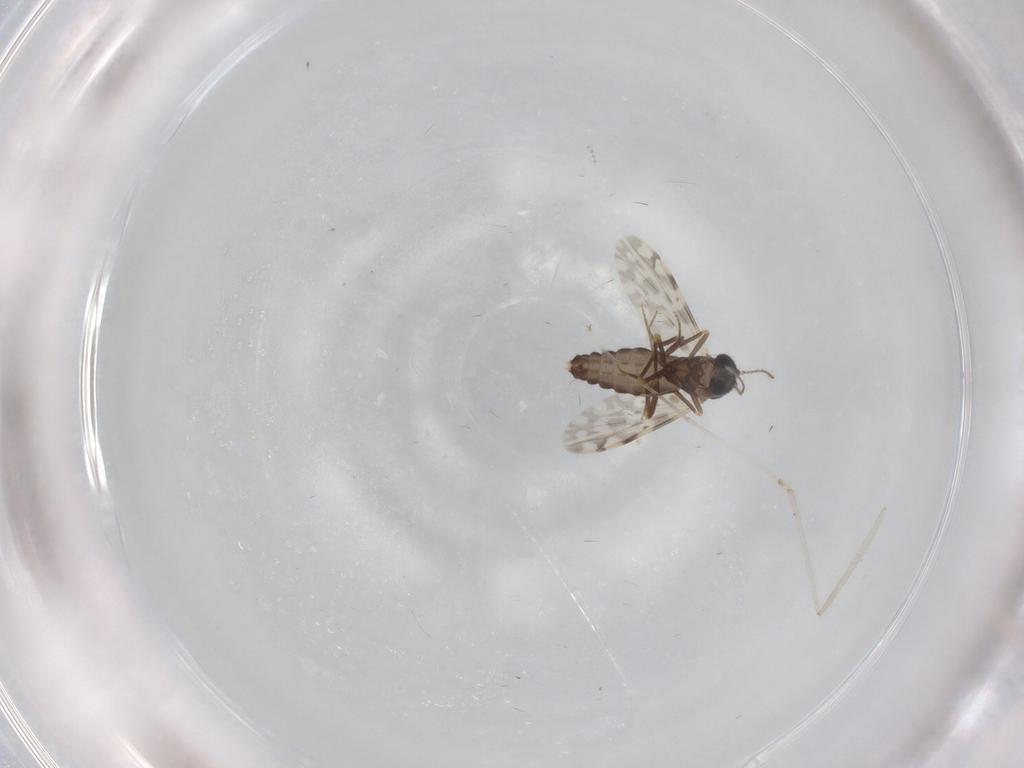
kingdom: Animalia
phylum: Arthropoda
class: Insecta
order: Diptera
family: Ceratopogonidae
